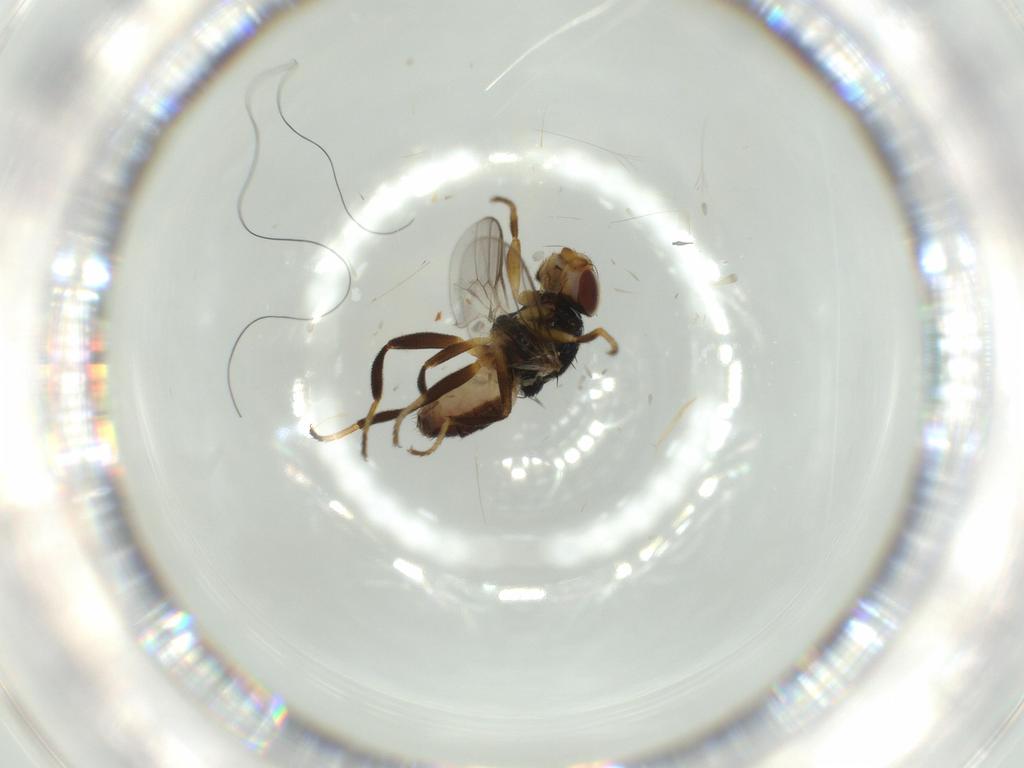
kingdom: Animalia
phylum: Arthropoda
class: Insecta
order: Diptera
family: Chloropidae
